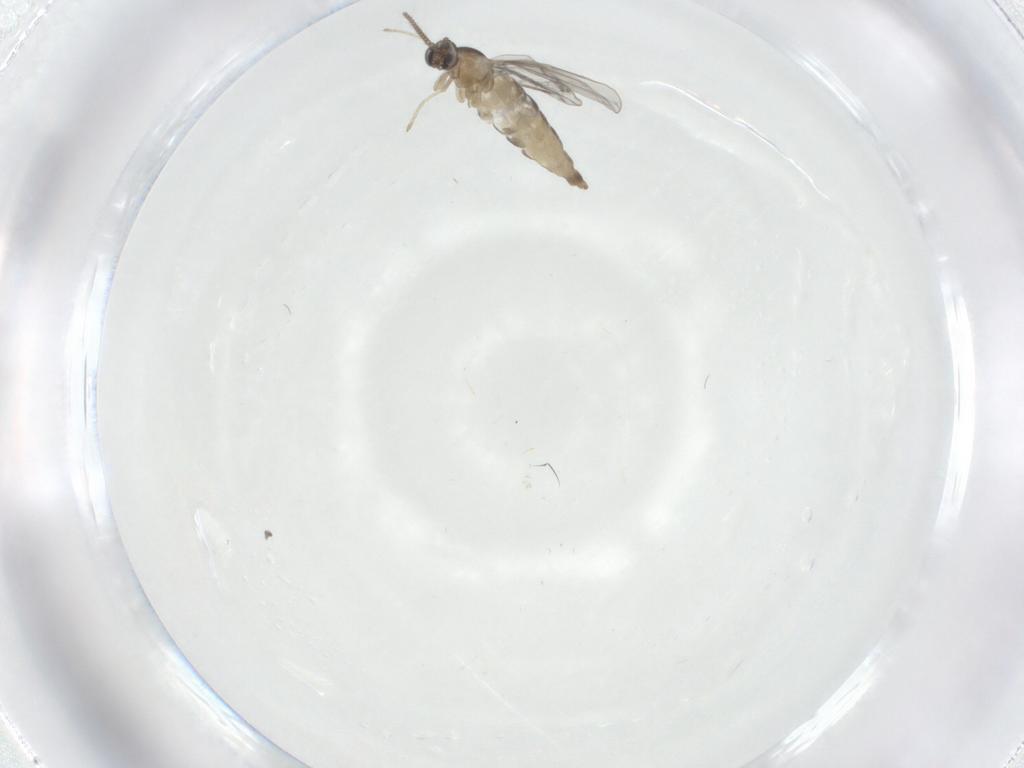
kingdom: Animalia
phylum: Arthropoda
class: Insecta
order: Diptera
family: Cecidomyiidae
